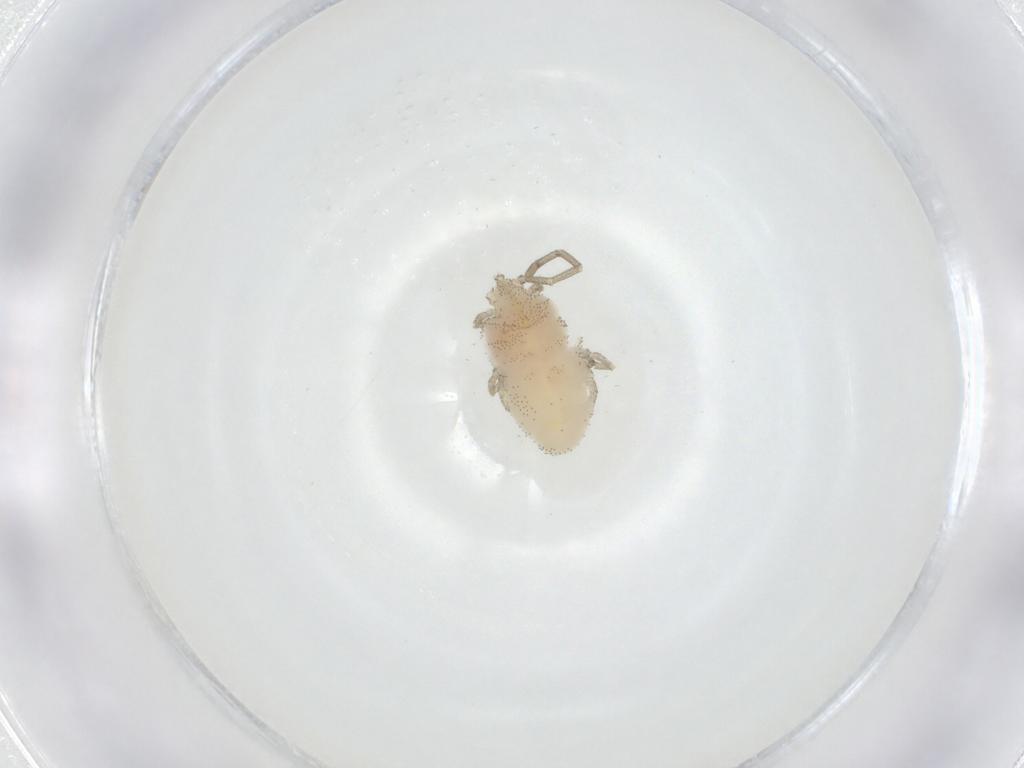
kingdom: Animalia
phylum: Arthropoda
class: Arachnida
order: Trombidiformes
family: Smarididae
